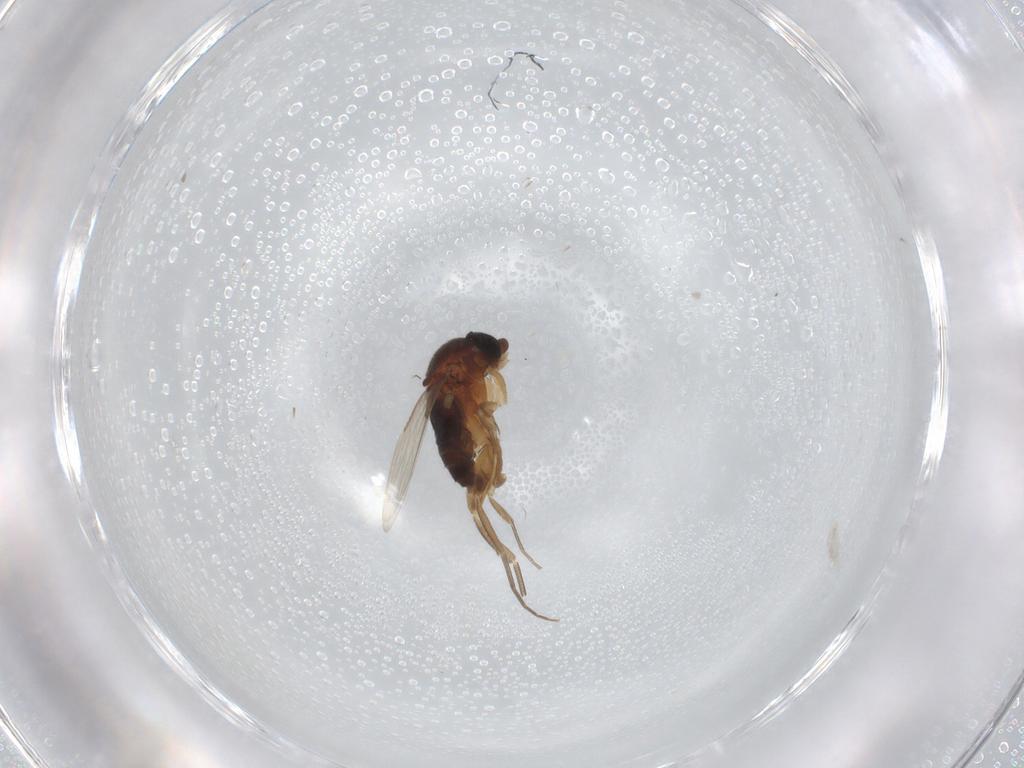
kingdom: Animalia
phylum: Arthropoda
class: Insecta
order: Diptera
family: Phoridae
